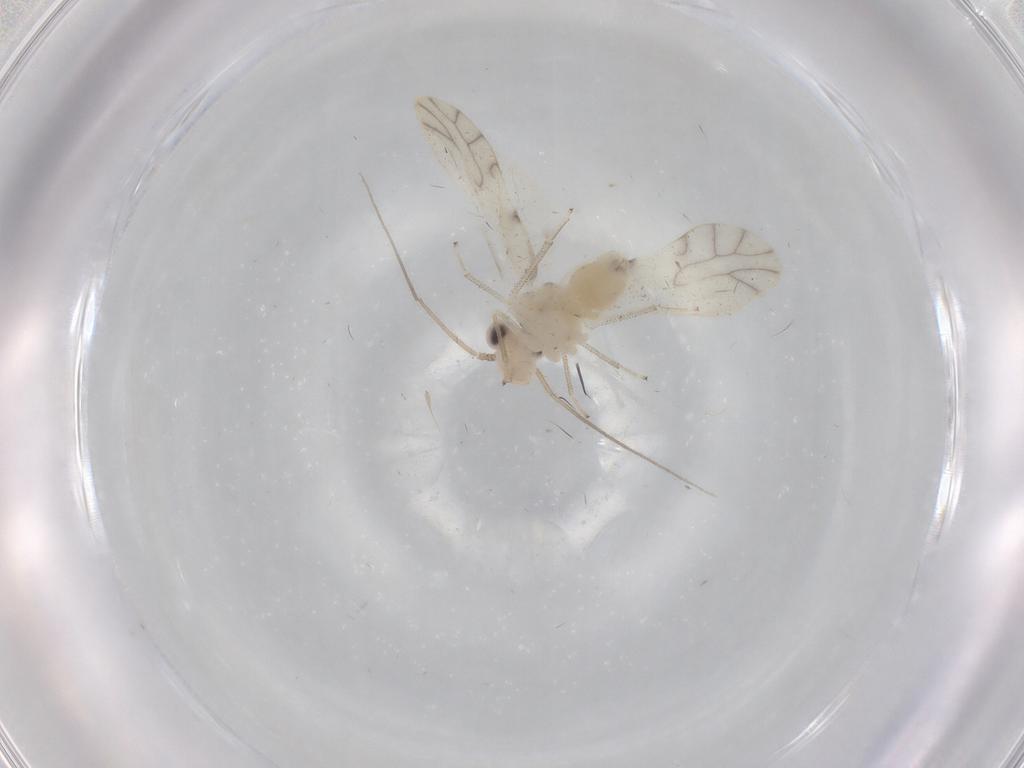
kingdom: Animalia
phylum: Arthropoda
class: Insecta
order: Psocodea
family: Caeciliusidae
